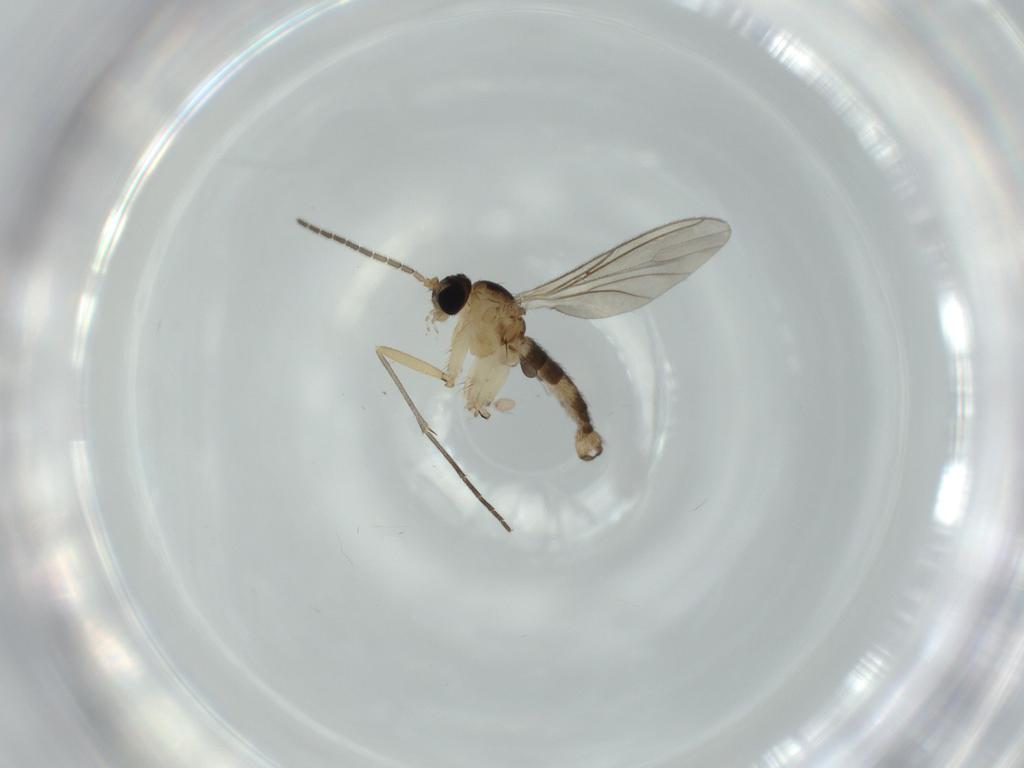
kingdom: Animalia
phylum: Arthropoda
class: Insecta
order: Diptera
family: Sciaridae
